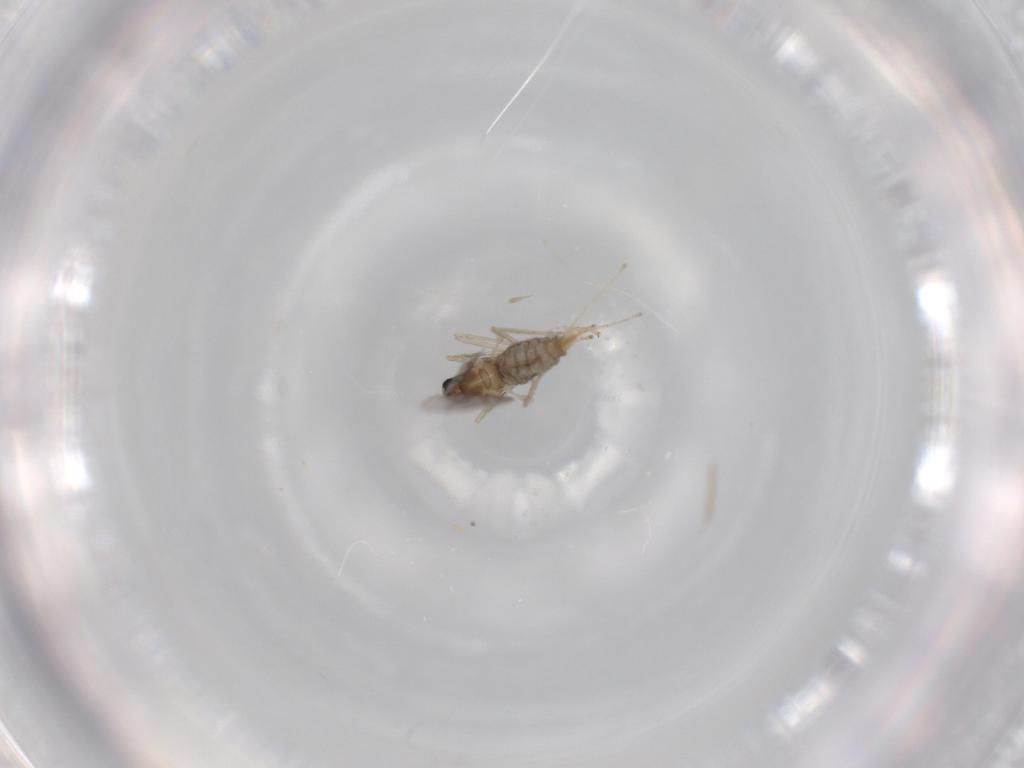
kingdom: Animalia
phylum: Arthropoda
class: Insecta
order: Diptera
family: Cecidomyiidae
